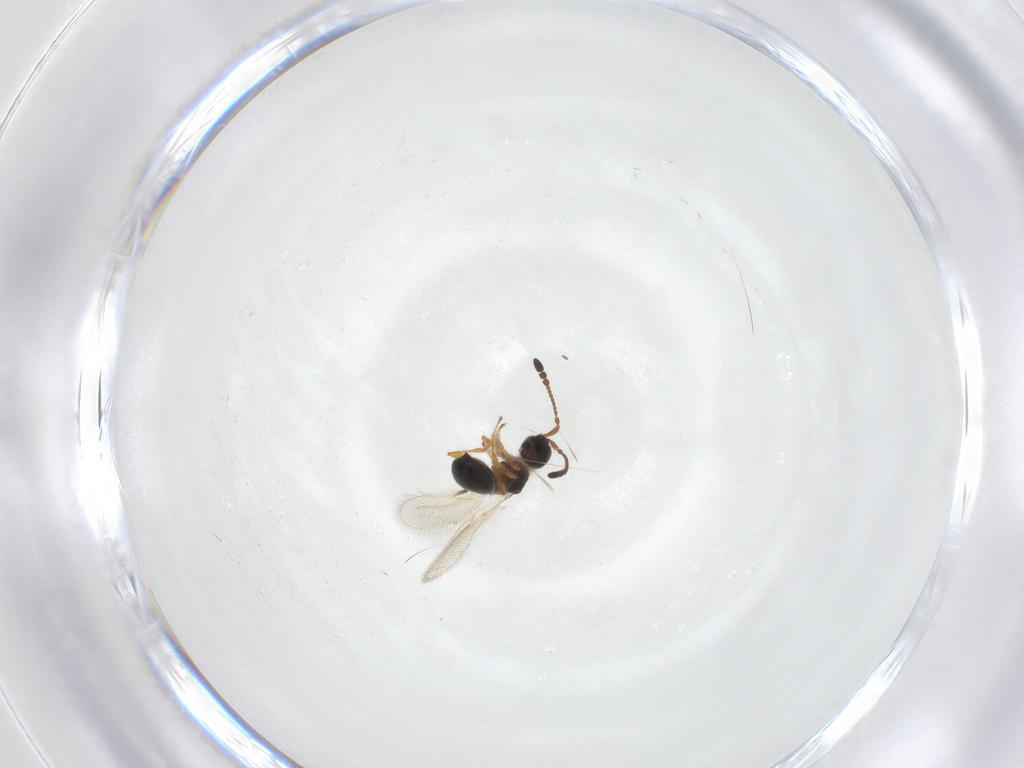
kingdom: Animalia
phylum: Arthropoda
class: Insecta
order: Hymenoptera
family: Diapriidae
